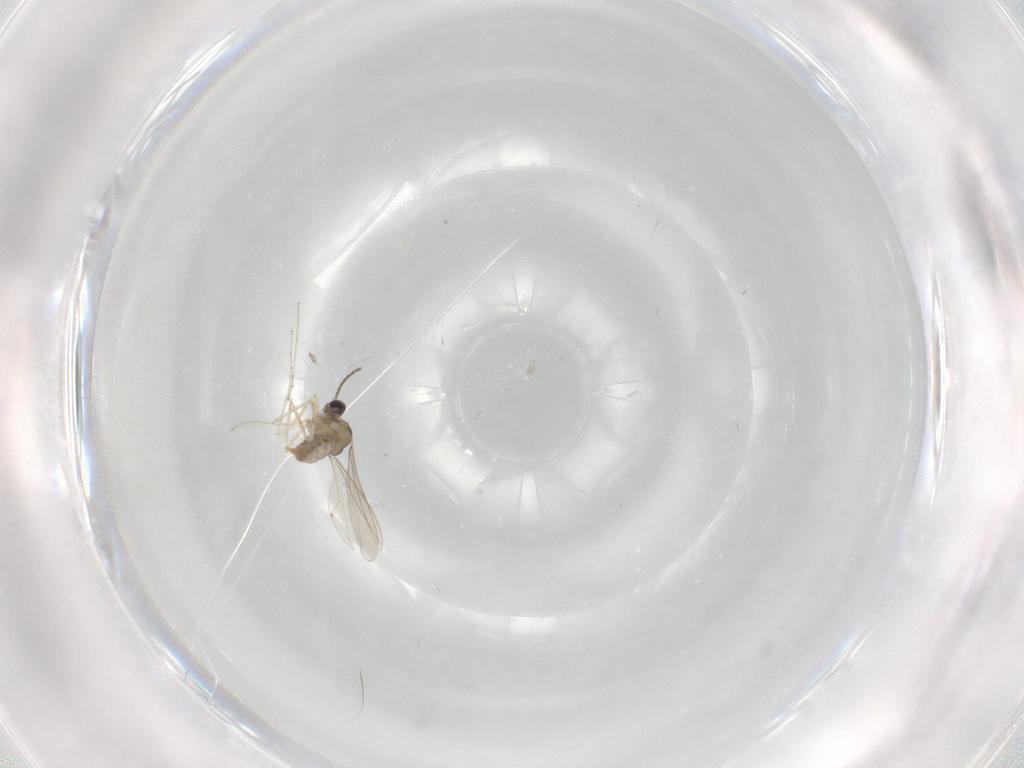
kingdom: Animalia
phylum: Arthropoda
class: Insecta
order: Diptera
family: Cecidomyiidae
